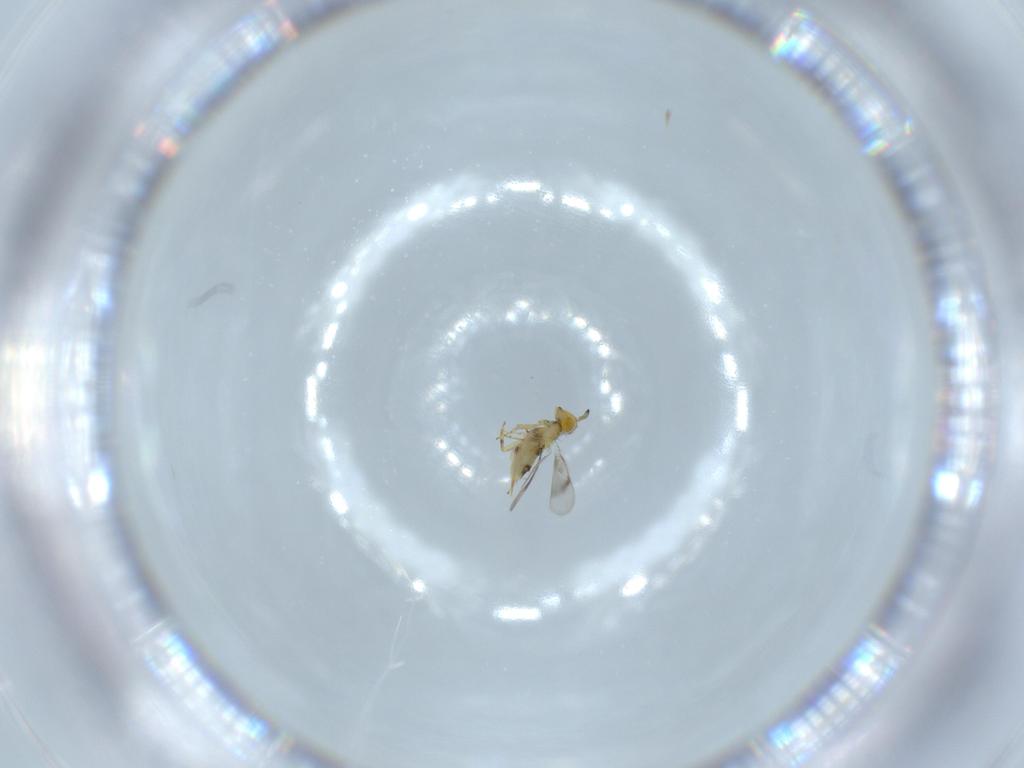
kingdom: Animalia
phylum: Arthropoda
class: Insecta
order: Hymenoptera
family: Aphelinidae
